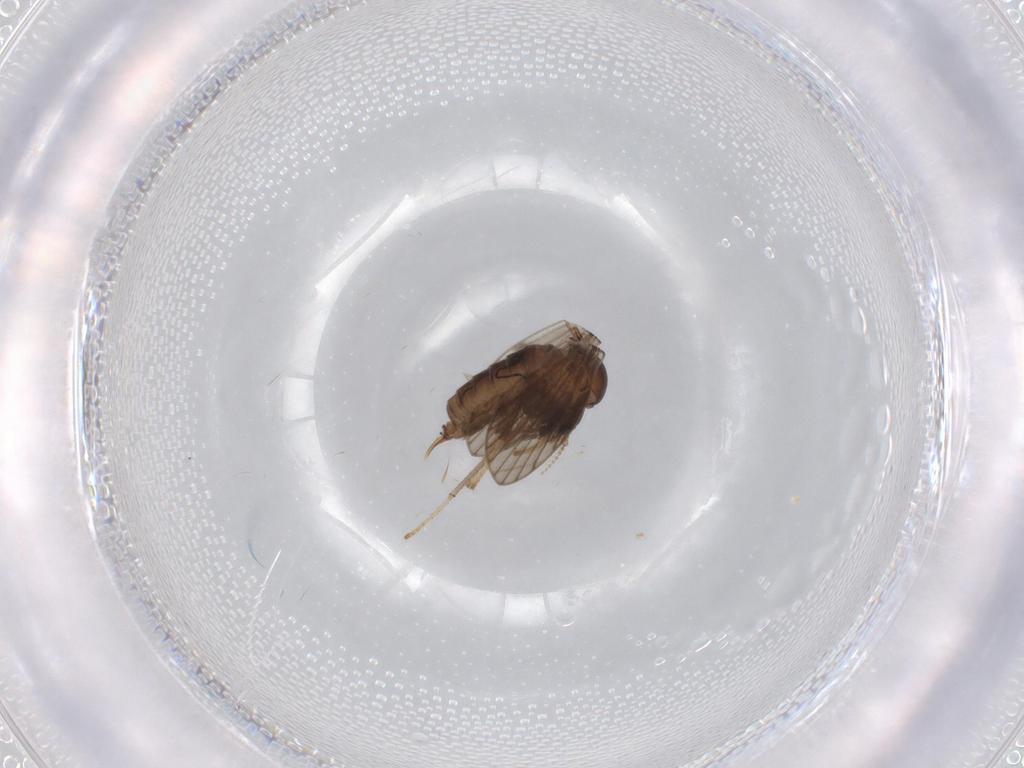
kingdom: Animalia
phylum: Arthropoda
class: Insecta
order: Diptera
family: Psychodidae
